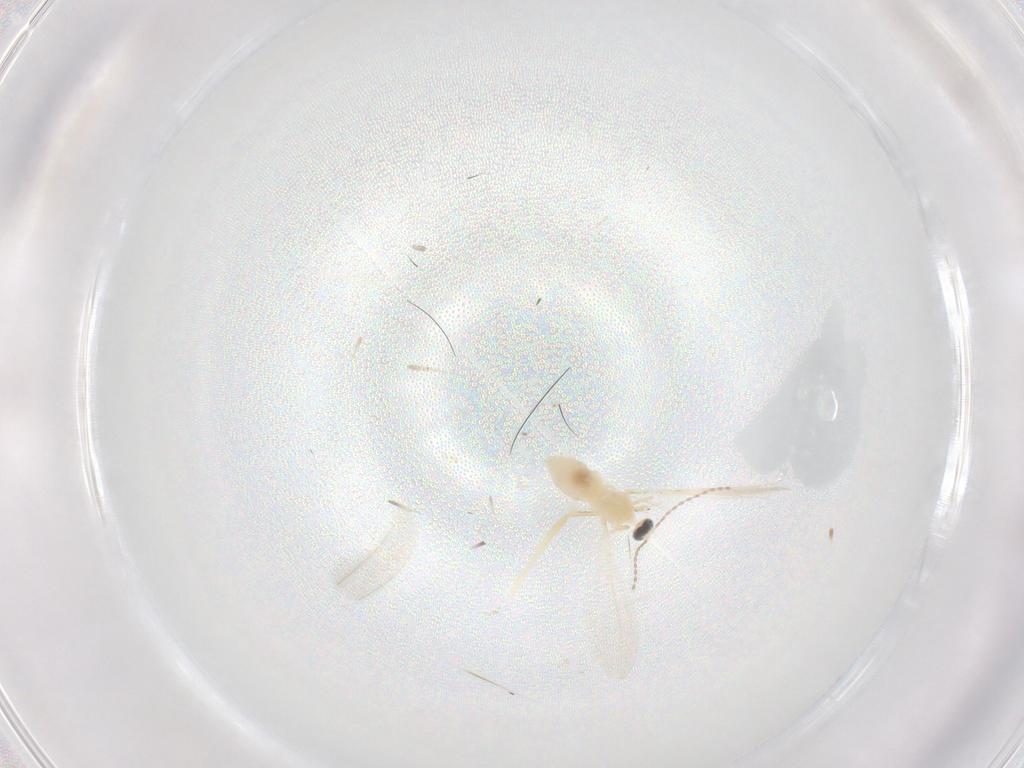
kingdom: Animalia
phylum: Arthropoda
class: Insecta
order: Diptera
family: Cecidomyiidae
